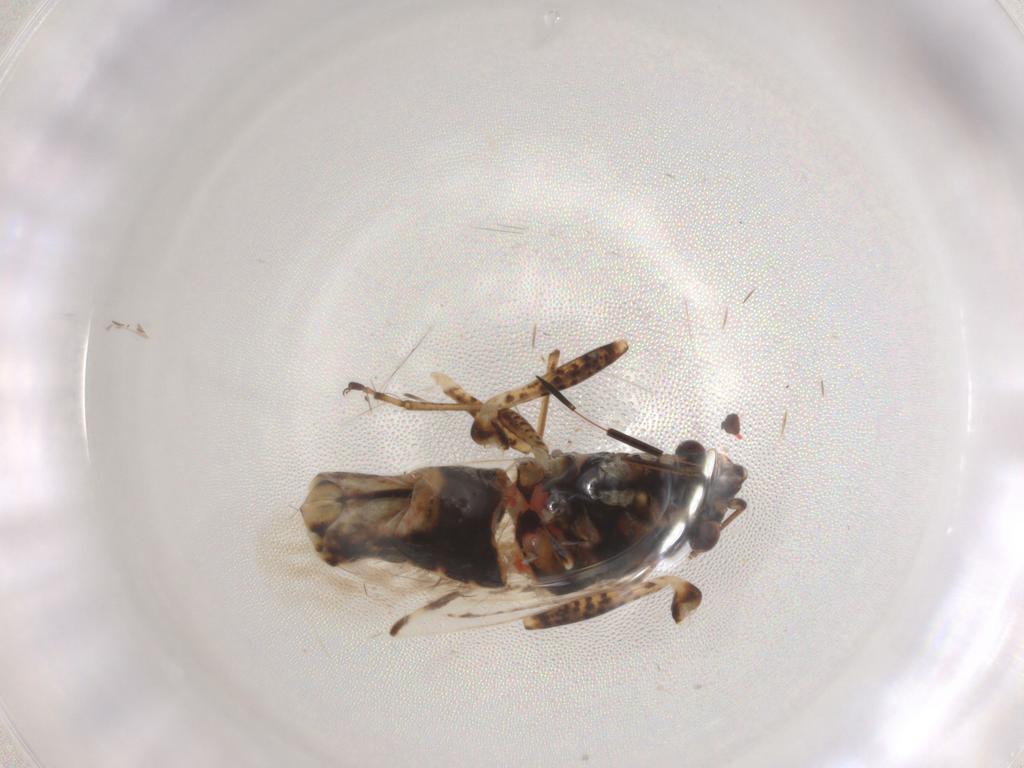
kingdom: Animalia
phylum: Arthropoda
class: Insecta
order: Hemiptera
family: Lygaeidae
